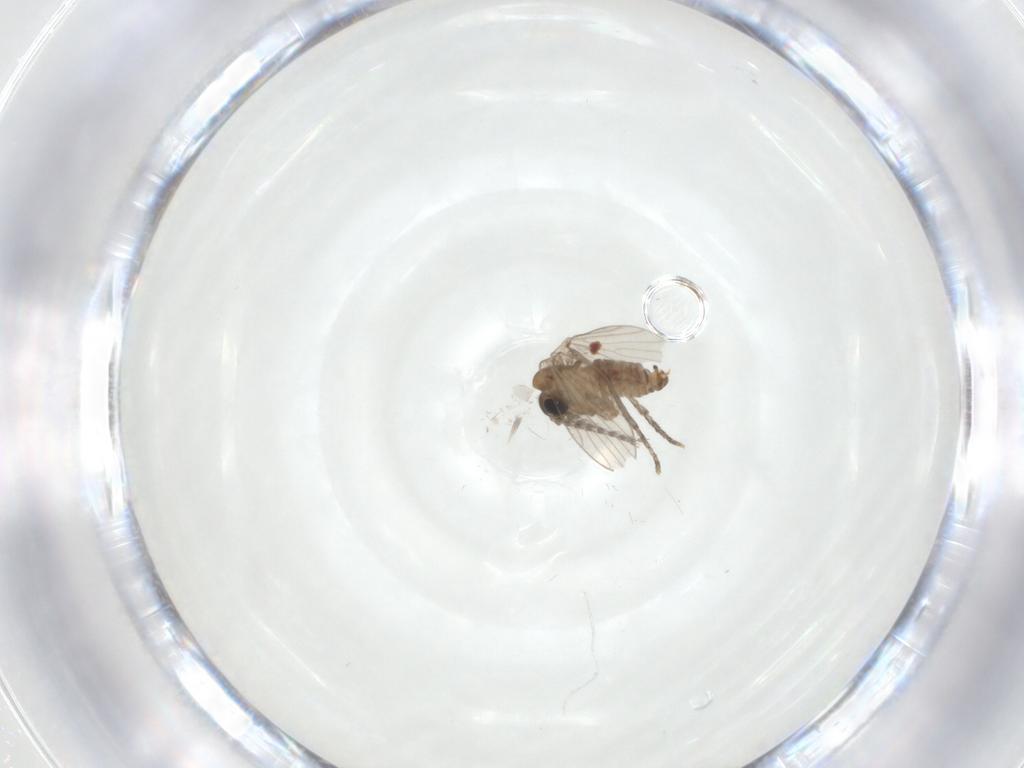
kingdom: Animalia
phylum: Arthropoda
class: Insecta
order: Diptera
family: Psychodidae
